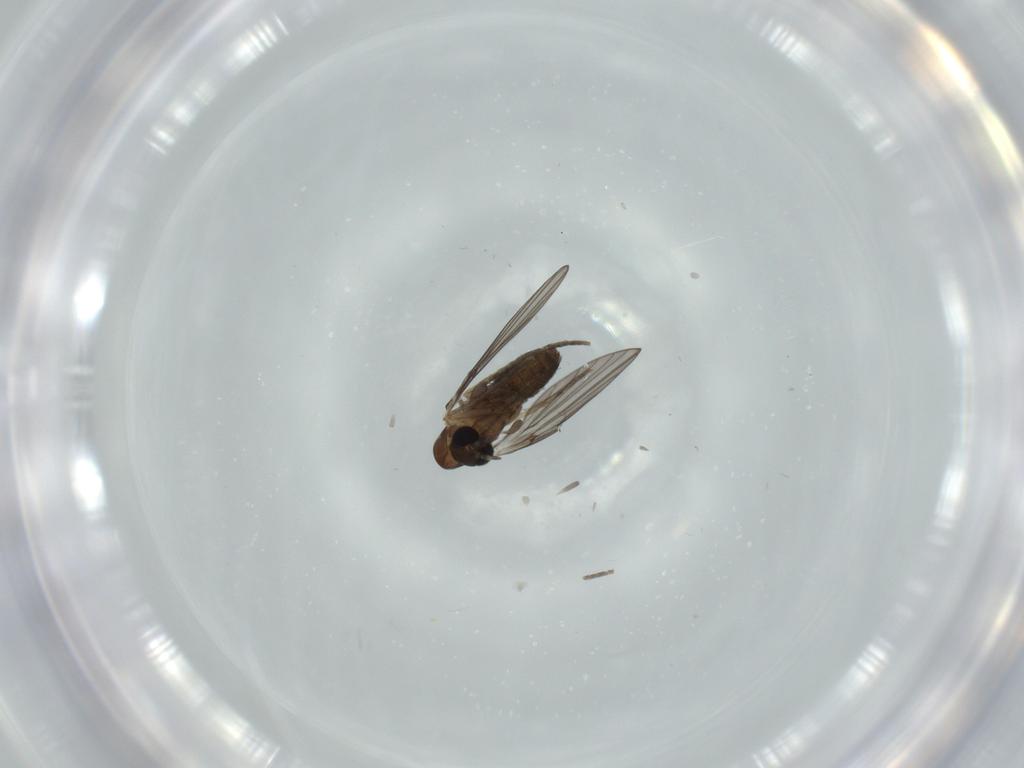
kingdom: Animalia
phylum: Arthropoda
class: Insecta
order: Diptera
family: Psychodidae
